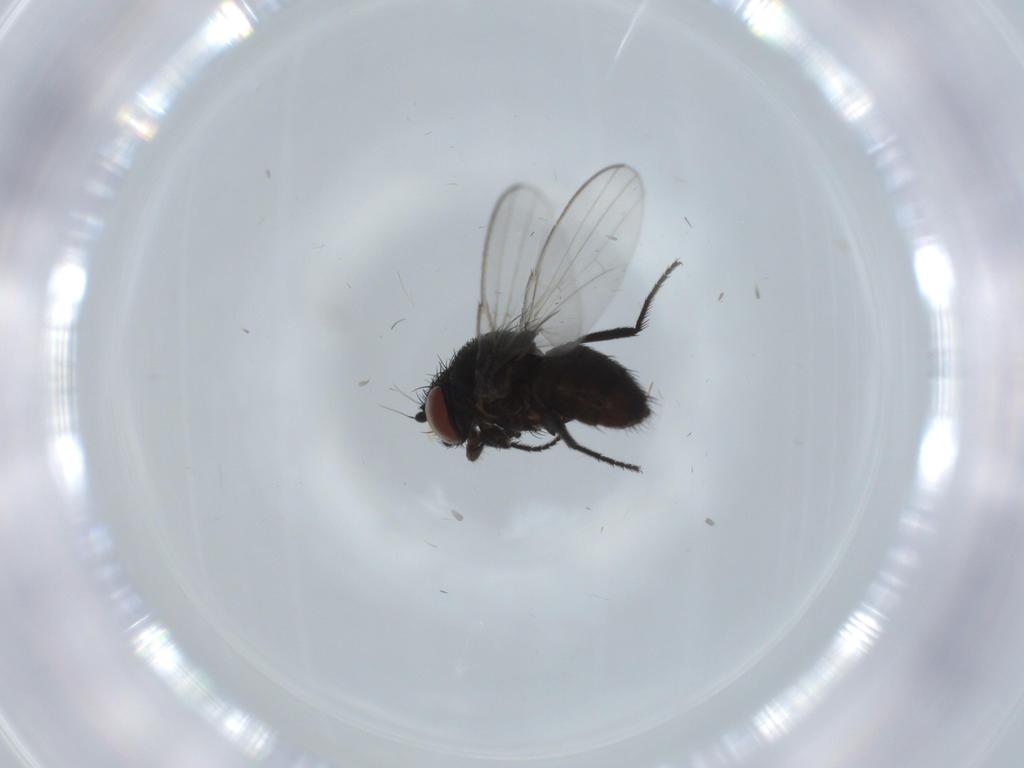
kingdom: Animalia
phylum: Arthropoda
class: Insecta
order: Diptera
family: Milichiidae
